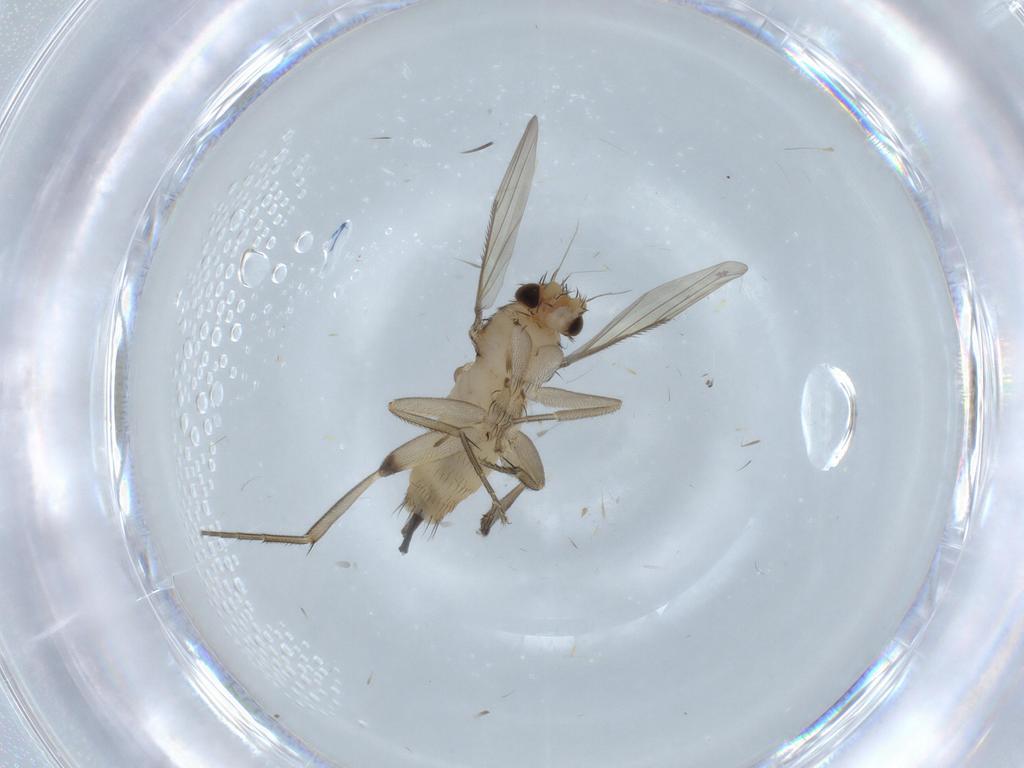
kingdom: Animalia
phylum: Arthropoda
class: Insecta
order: Diptera
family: Phoridae
